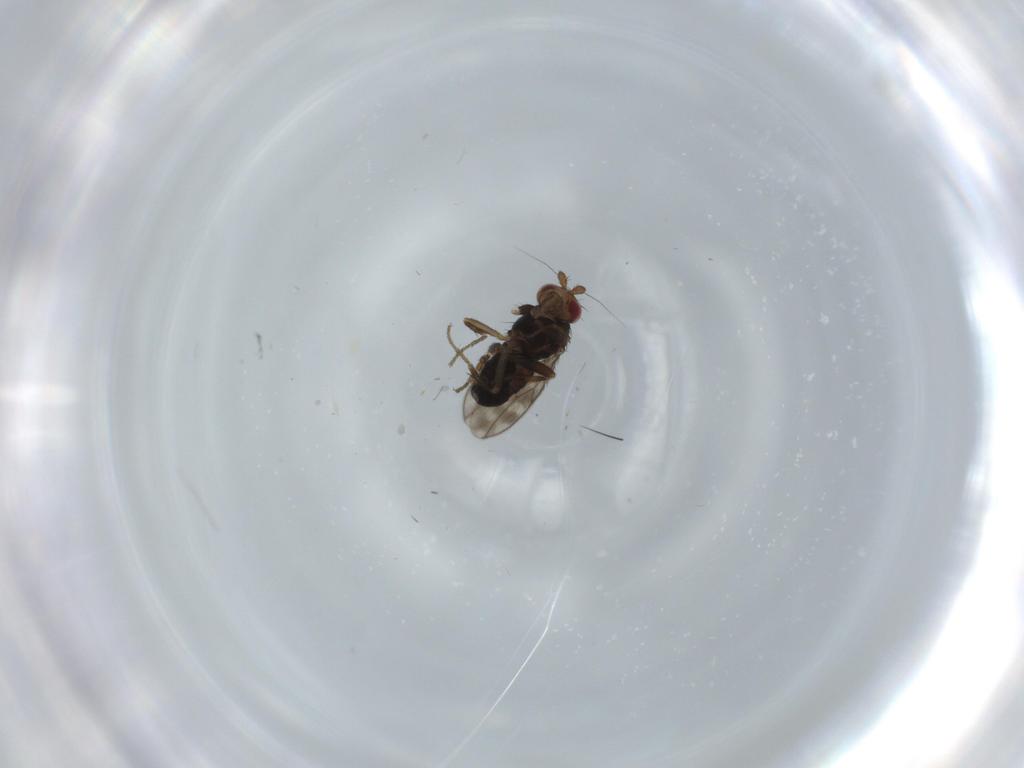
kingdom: Animalia
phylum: Arthropoda
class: Insecta
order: Diptera
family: Sphaeroceridae
